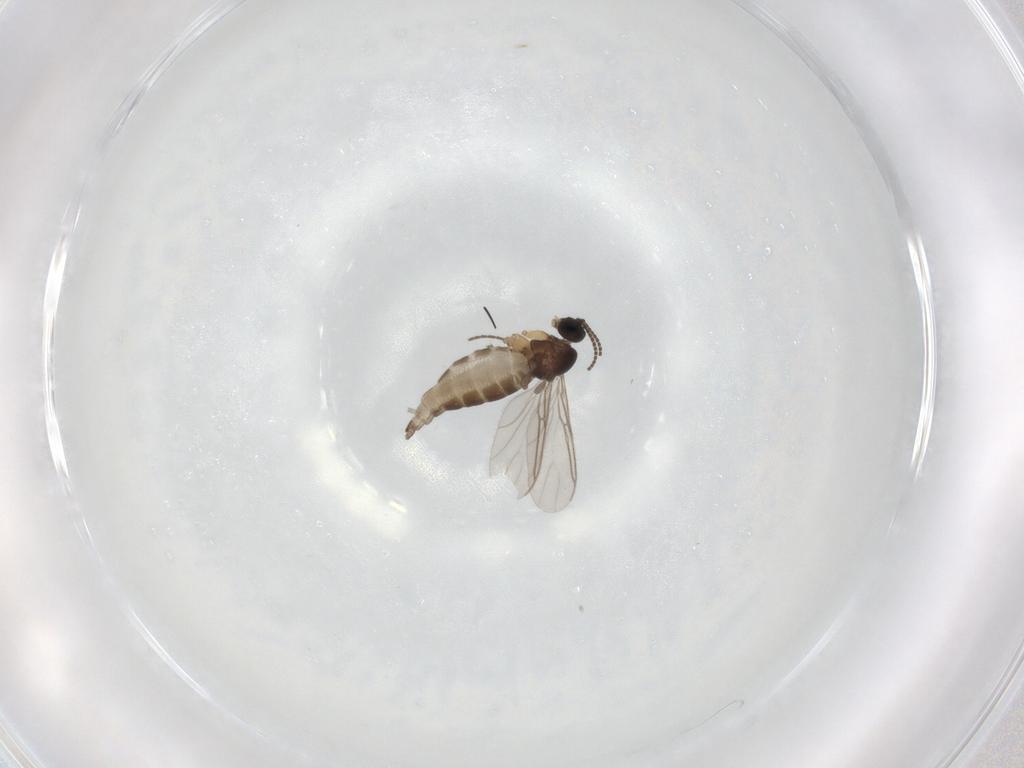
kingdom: Animalia
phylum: Arthropoda
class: Insecta
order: Diptera
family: Sciaridae
